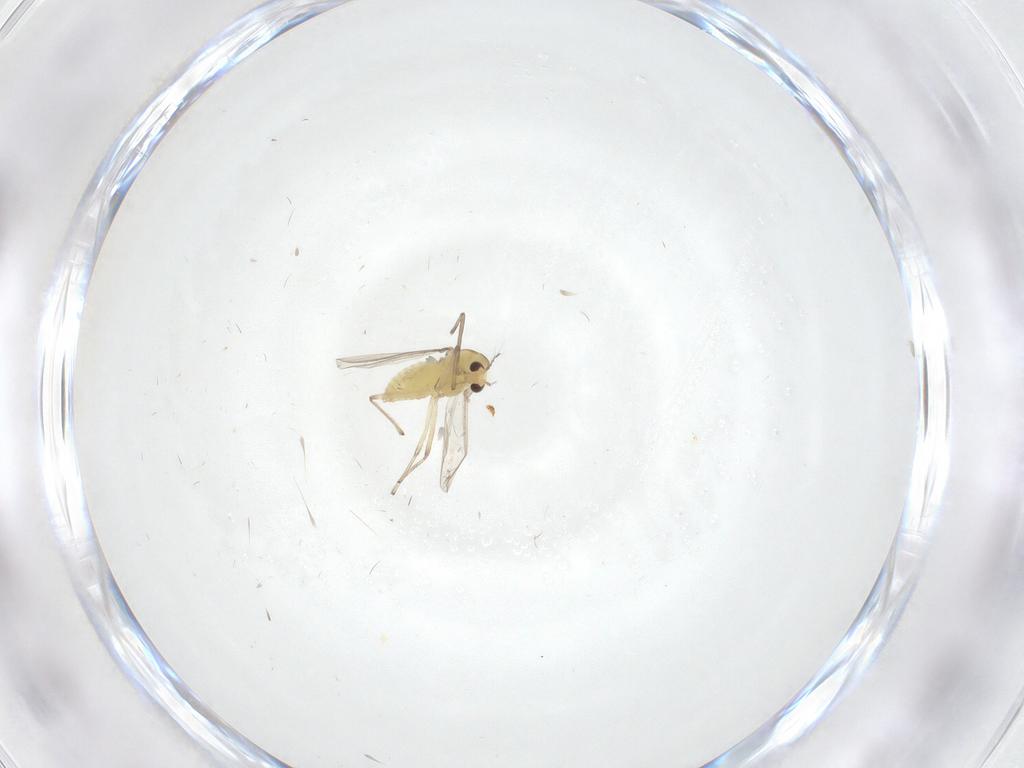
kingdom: Animalia
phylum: Arthropoda
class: Insecta
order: Diptera
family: Chironomidae
